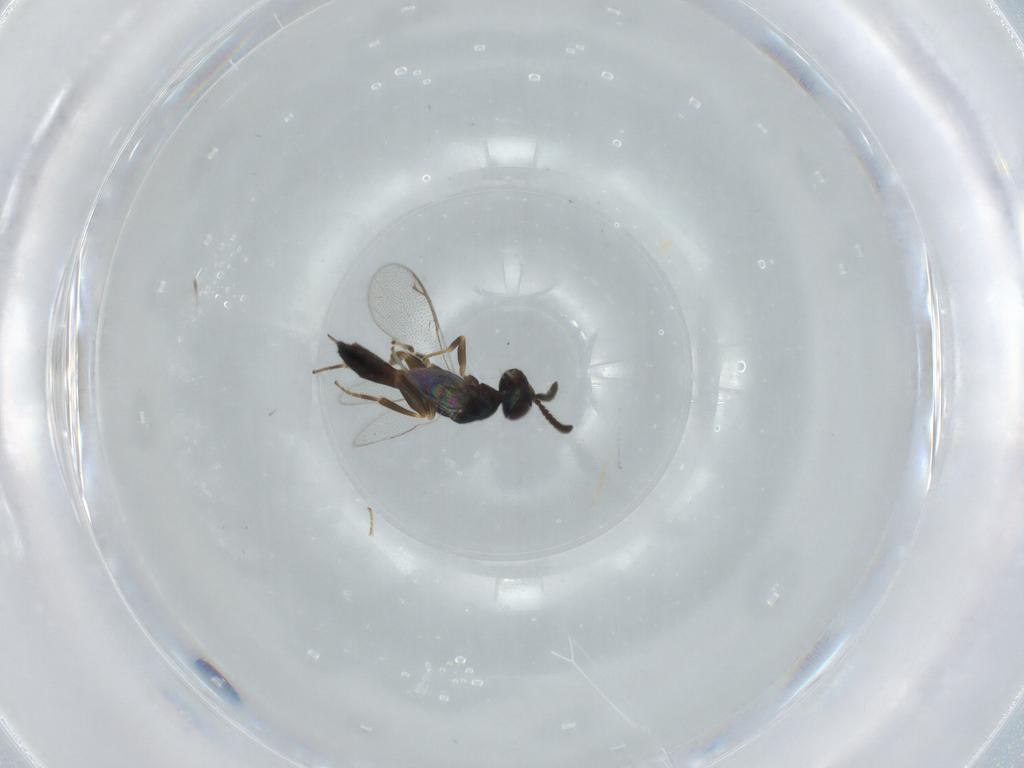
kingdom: Animalia
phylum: Arthropoda
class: Insecta
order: Hymenoptera
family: Cleonyminae
